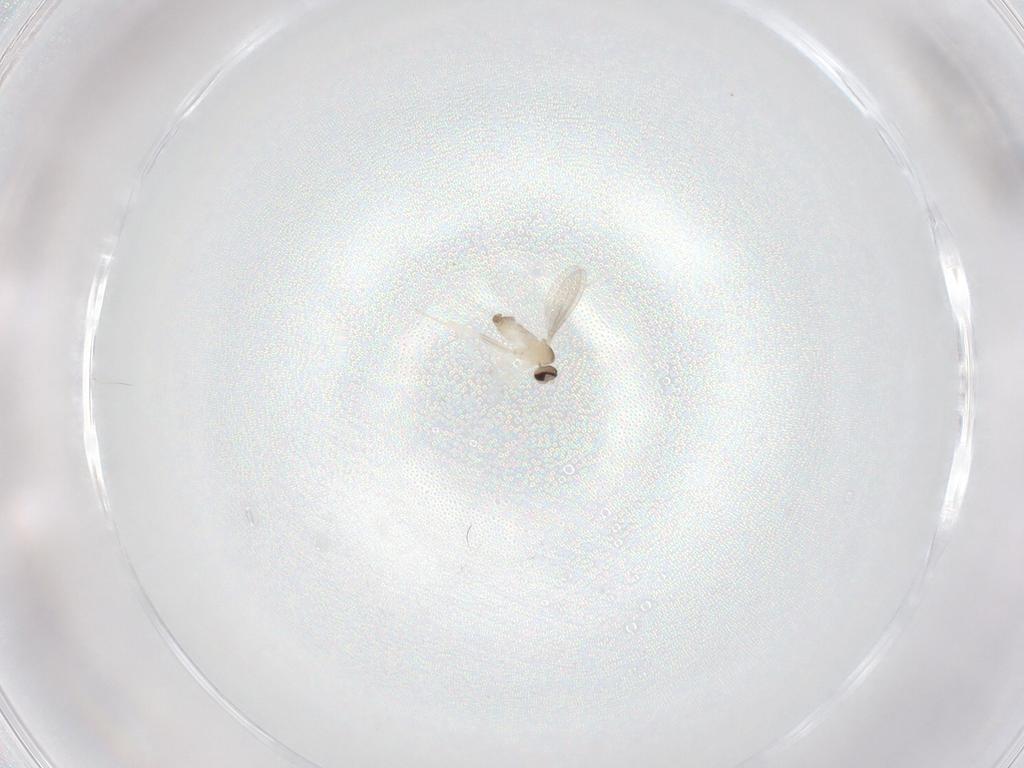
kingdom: Animalia
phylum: Arthropoda
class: Insecta
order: Diptera
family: Cecidomyiidae
